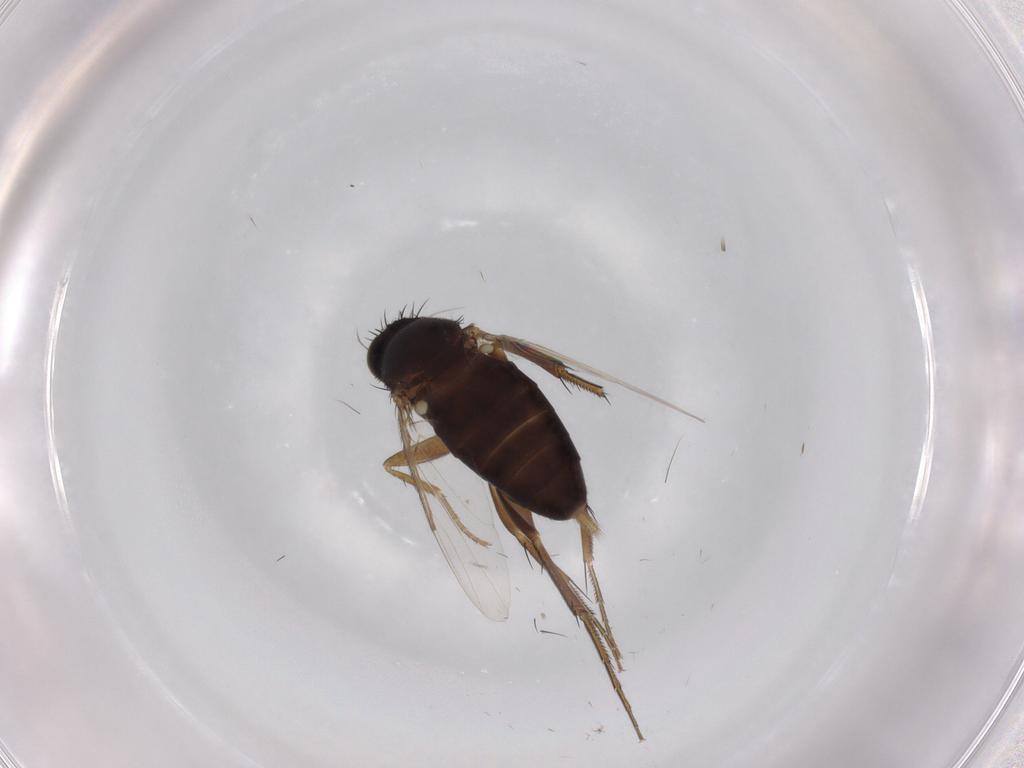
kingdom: Animalia
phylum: Arthropoda
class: Insecta
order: Diptera
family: Phoridae
